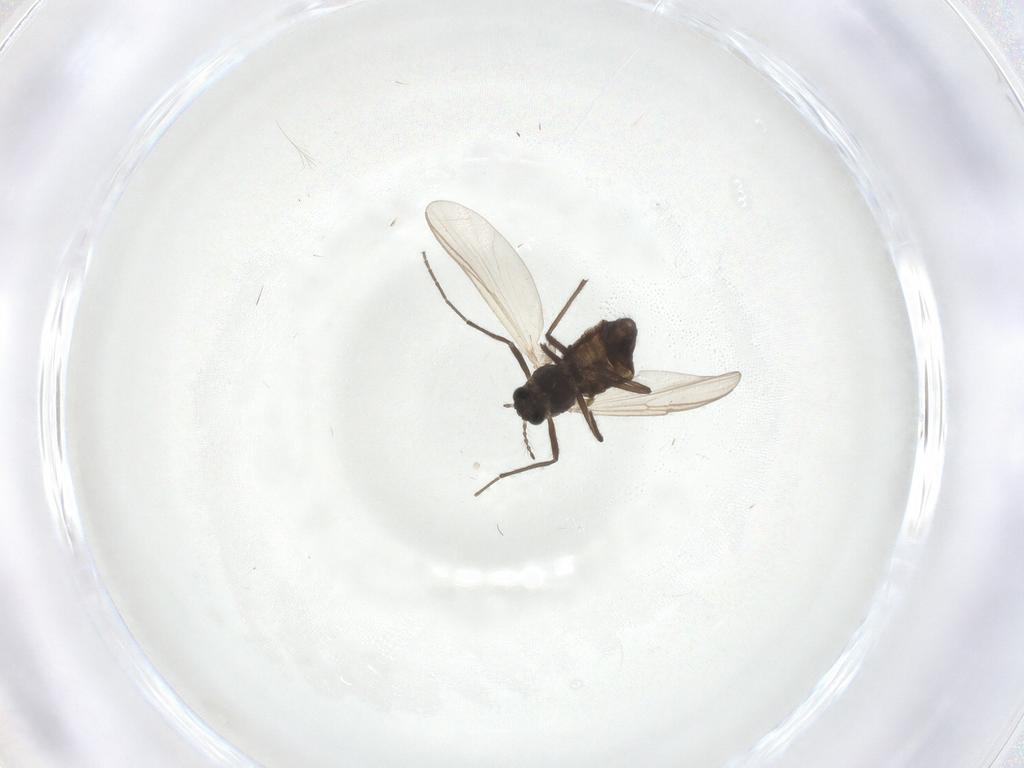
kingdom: Animalia
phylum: Arthropoda
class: Insecta
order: Diptera
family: Chironomidae
